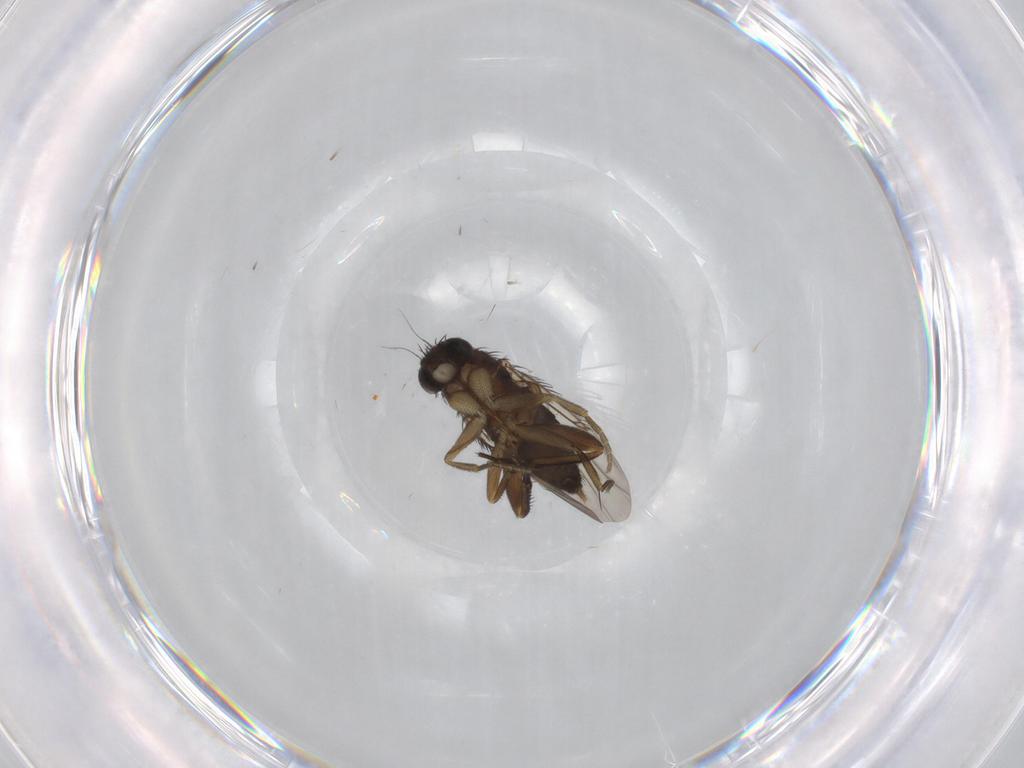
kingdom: Animalia
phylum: Arthropoda
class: Insecta
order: Diptera
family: Phoridae
